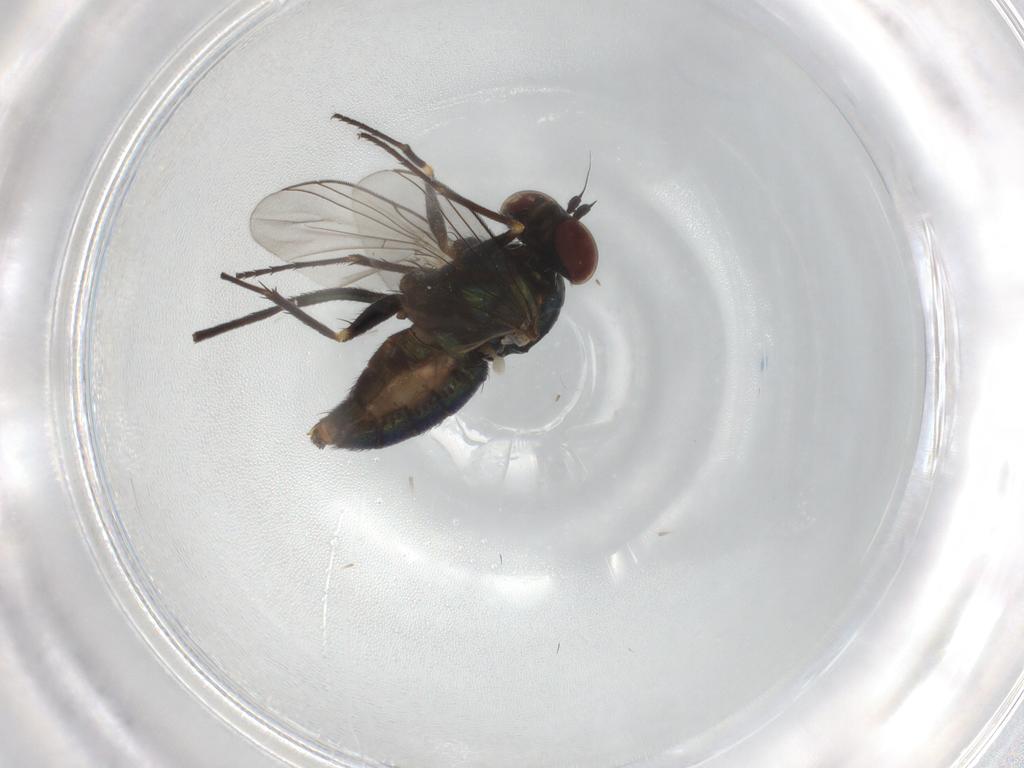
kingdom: Animalia
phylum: Arthropoda
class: Insecta
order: Diptera
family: Dolichopodidae
